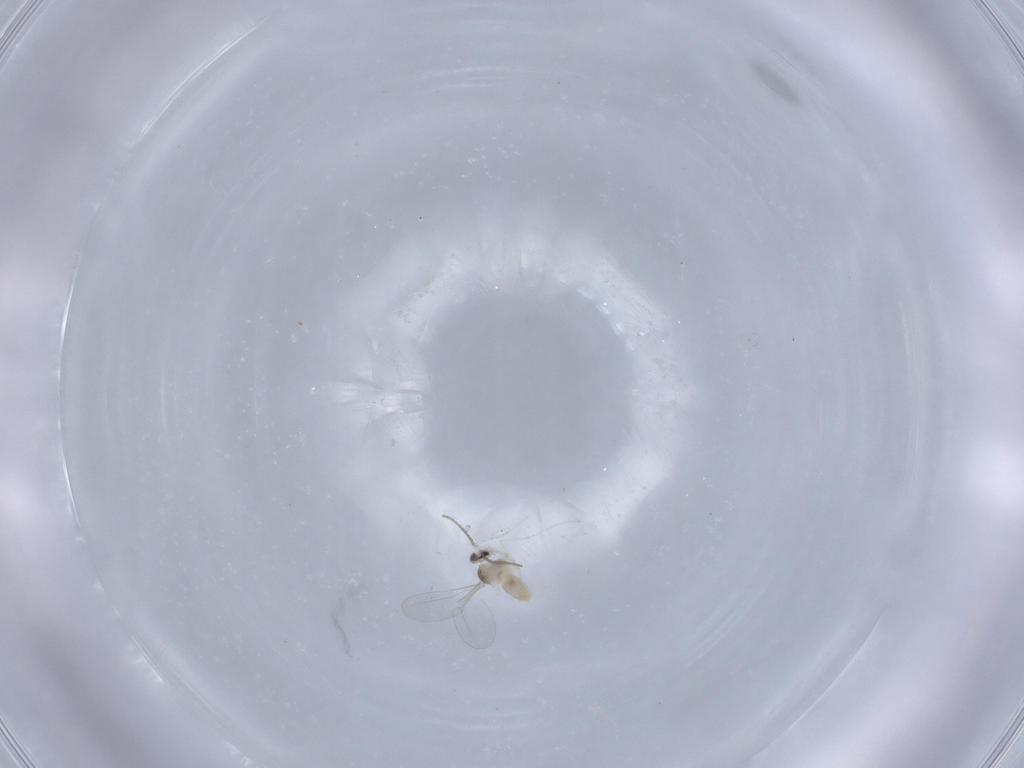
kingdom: Animalia
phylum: Arthropoda
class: Insecta
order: Diptera
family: Cecidomyiidae
